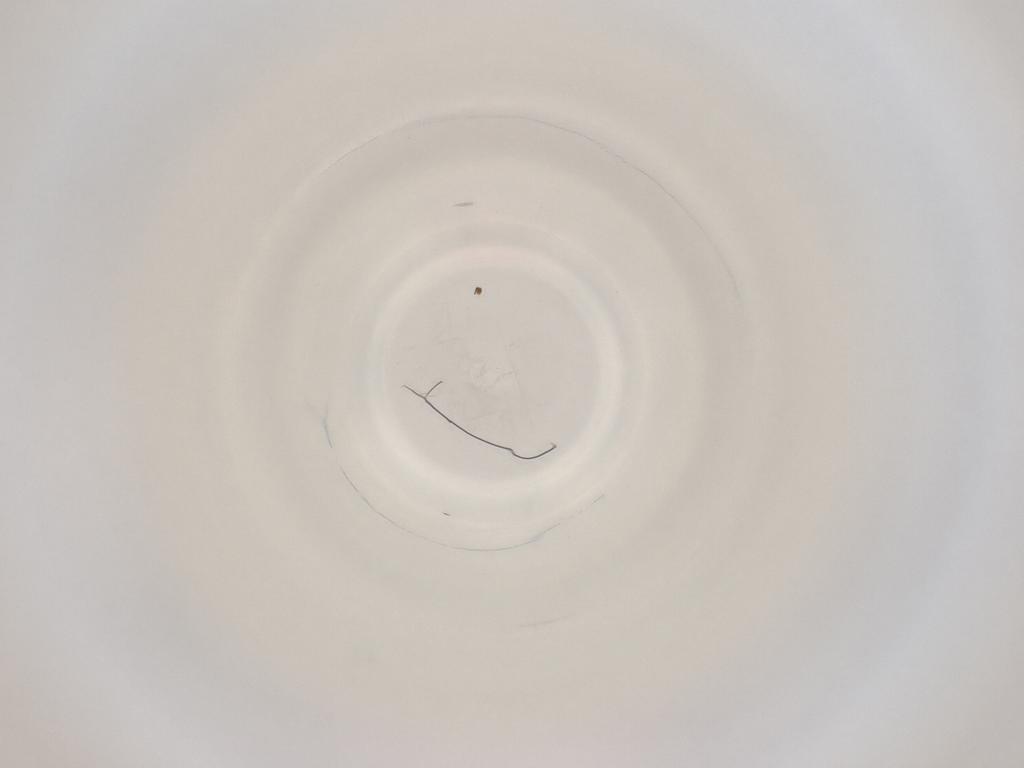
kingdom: Animalia
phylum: Arthropoda
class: Insecta
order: Diptera
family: Cecidomyiidae
